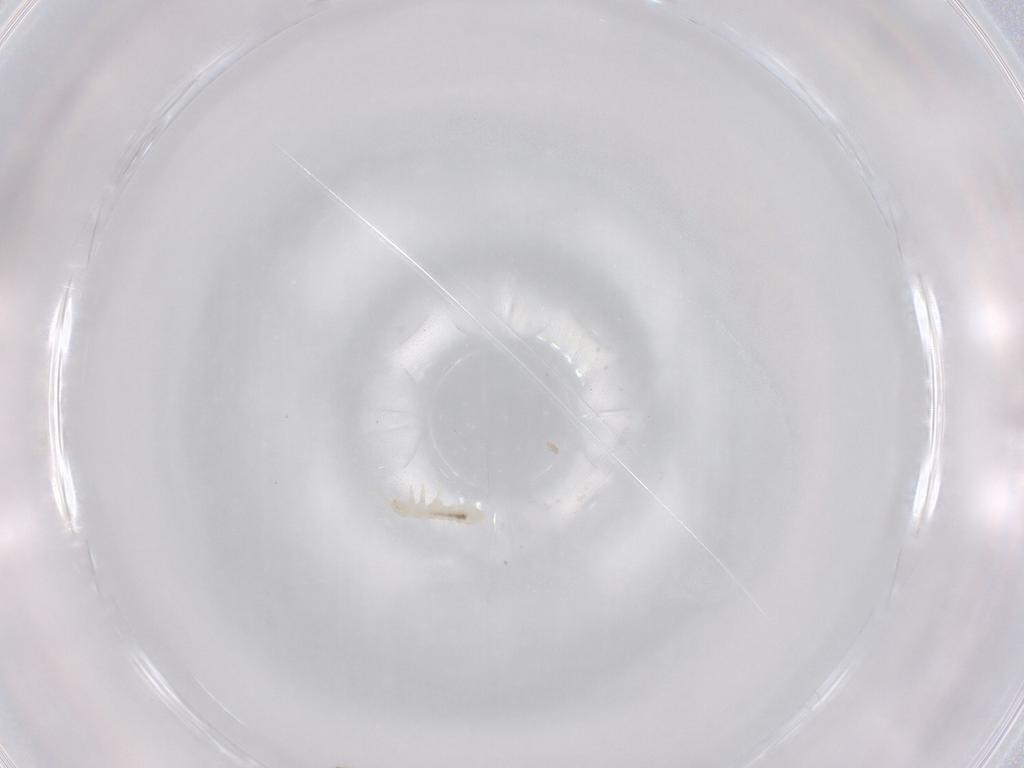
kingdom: Animalia
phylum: Arthropoda
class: Collembola
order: Entomobryomorpha
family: Isotomidae
